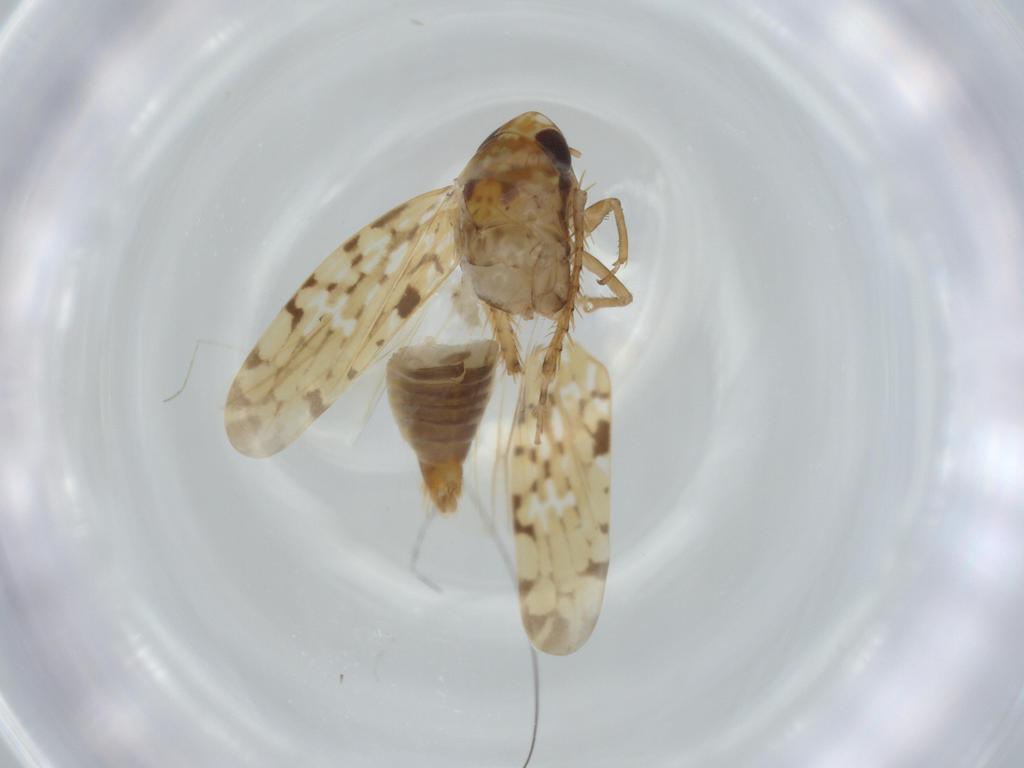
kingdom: Animalia
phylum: Arthropoda
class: Insecta
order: Hemiptera
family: Cicadellidae
